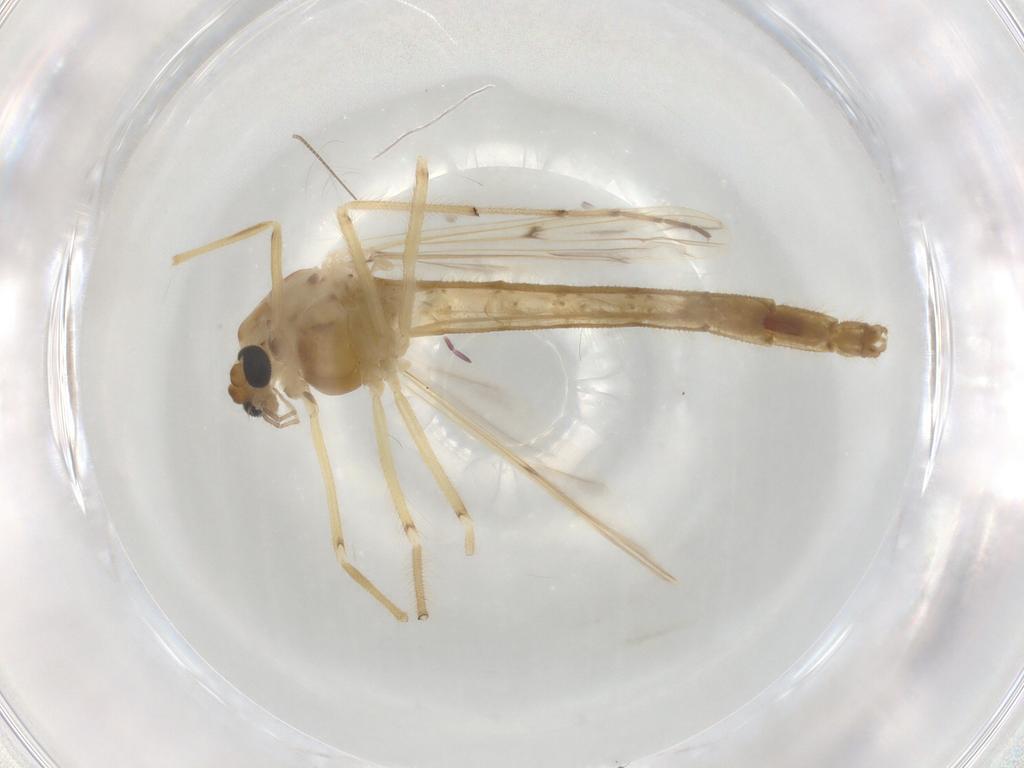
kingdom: Animalia
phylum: Arthropoda
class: Insecta
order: Diptera
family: Chironomidae
